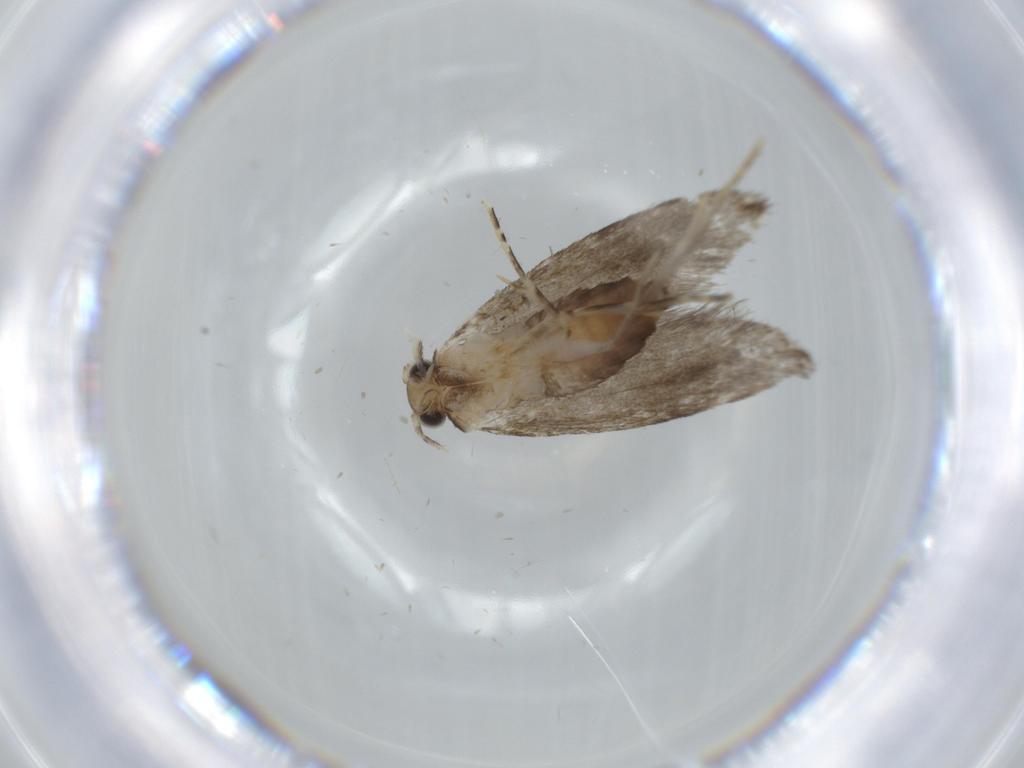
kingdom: Animalia
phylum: Arthropoda
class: Insecta
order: Lepidoptera
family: Tineidae
